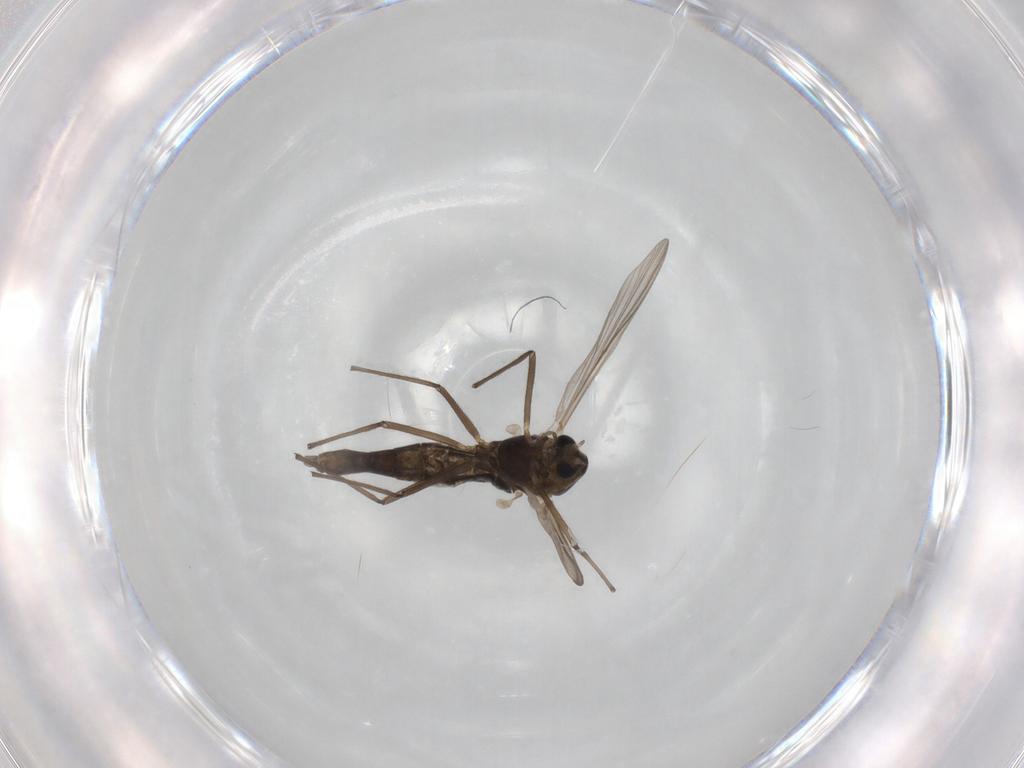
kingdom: Animalia
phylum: Arthropoda
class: Insecta
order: Diptera
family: Chironomidae
